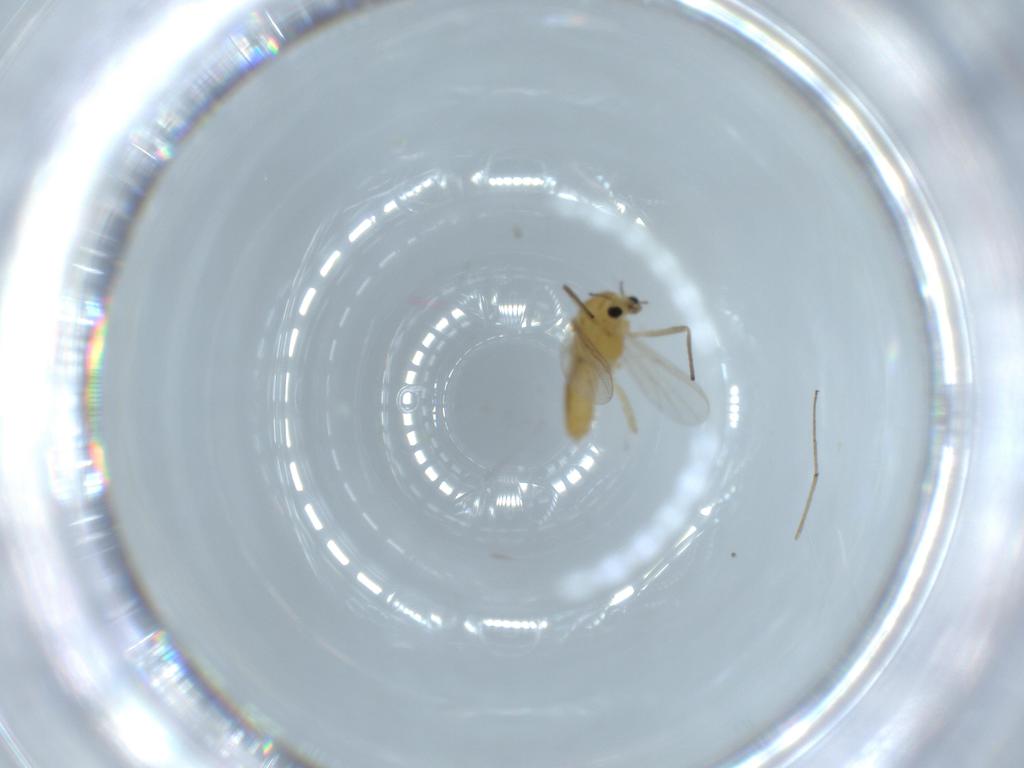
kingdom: Animalia
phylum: Arthropoda
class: Insecta
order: Diptera
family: Chironomidae
